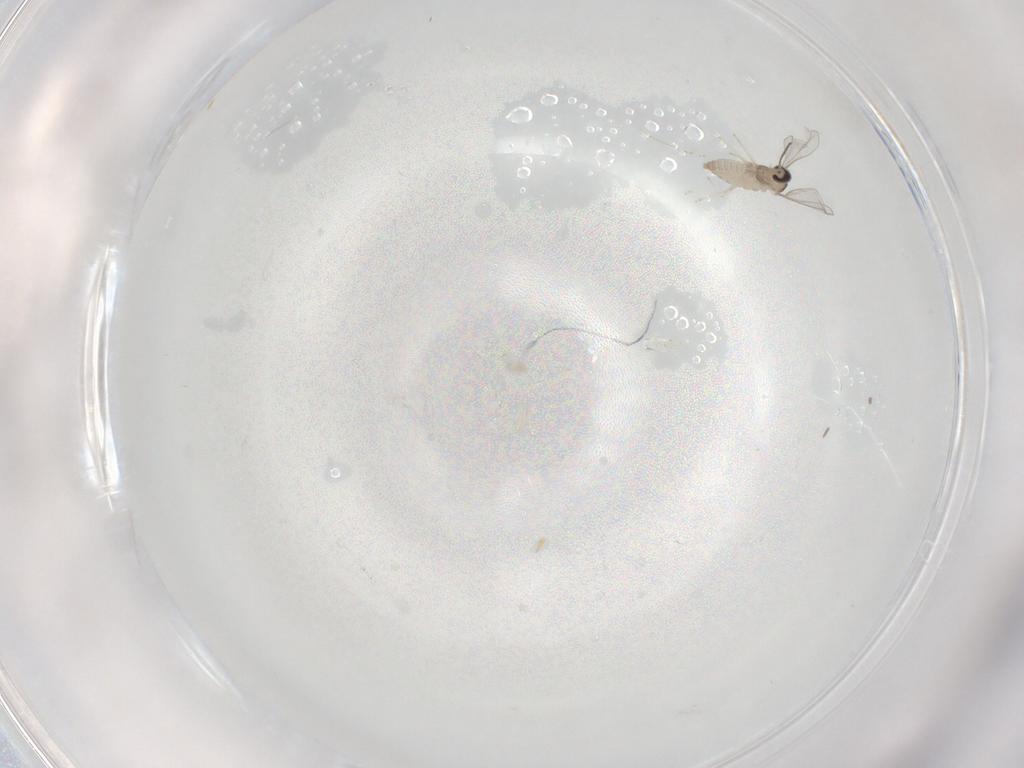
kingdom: Animalia
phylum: Arthropoda
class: Insecta
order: Diptera
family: Cecidomyiidae
